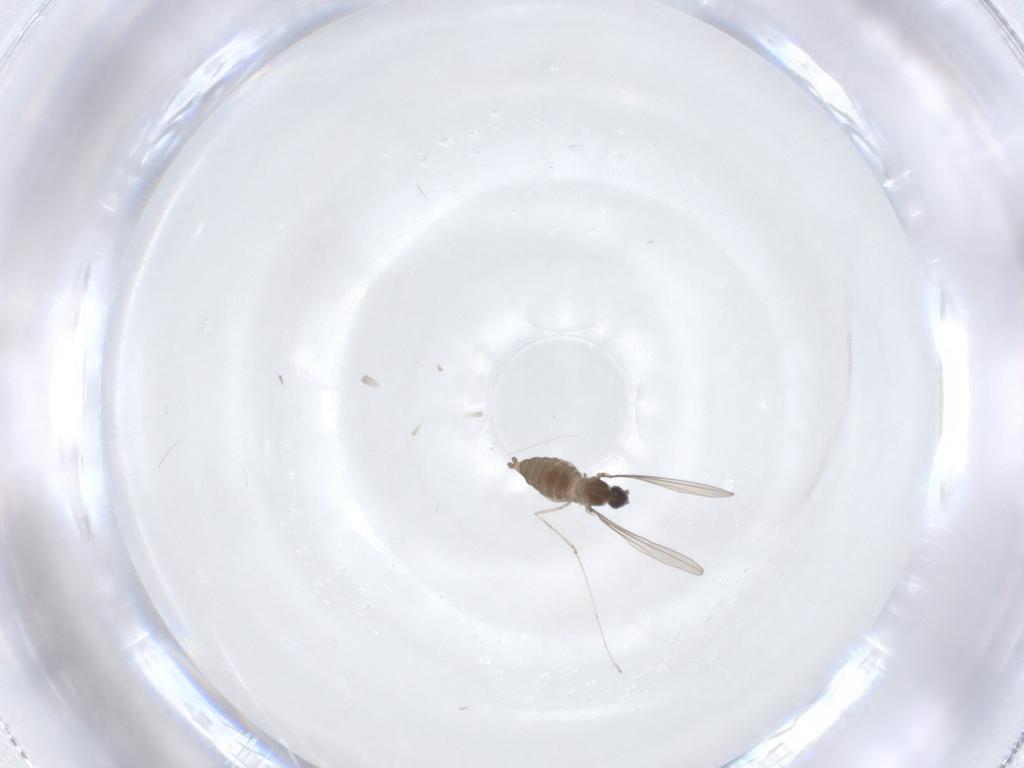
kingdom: Animalia
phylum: Arthropoda
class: Insecta
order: Diptera
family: Cecidomyiidae
